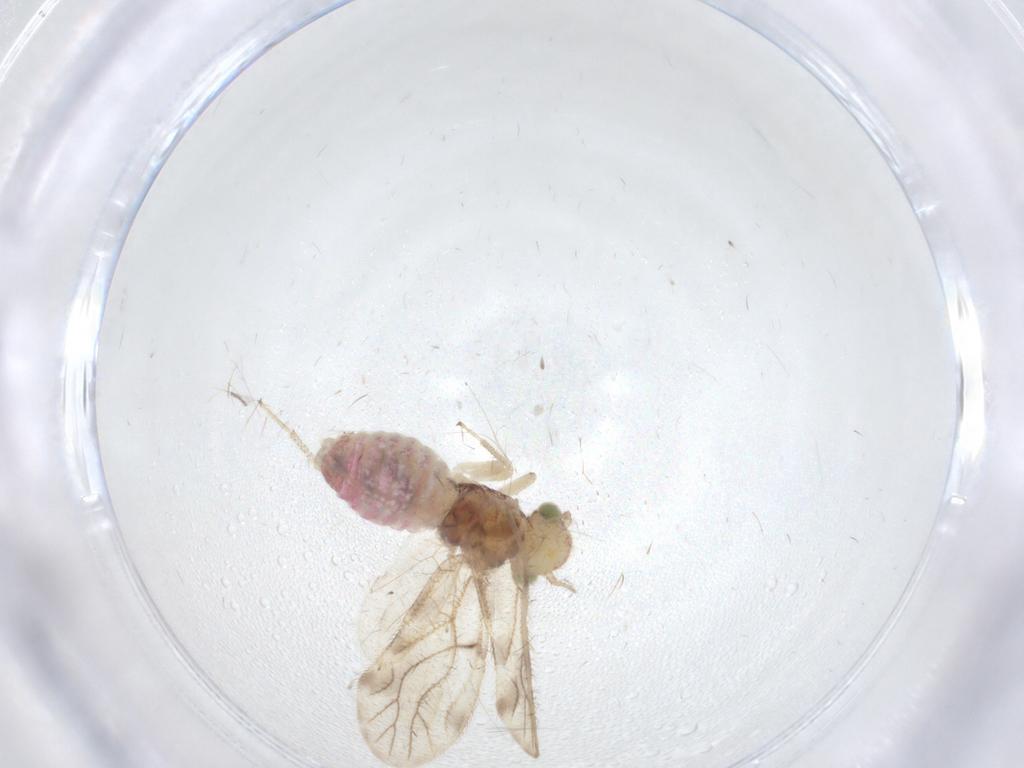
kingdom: Animalia
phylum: Arthropoda
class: Insecta
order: Psocodea
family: Pseudocaeciliidae
